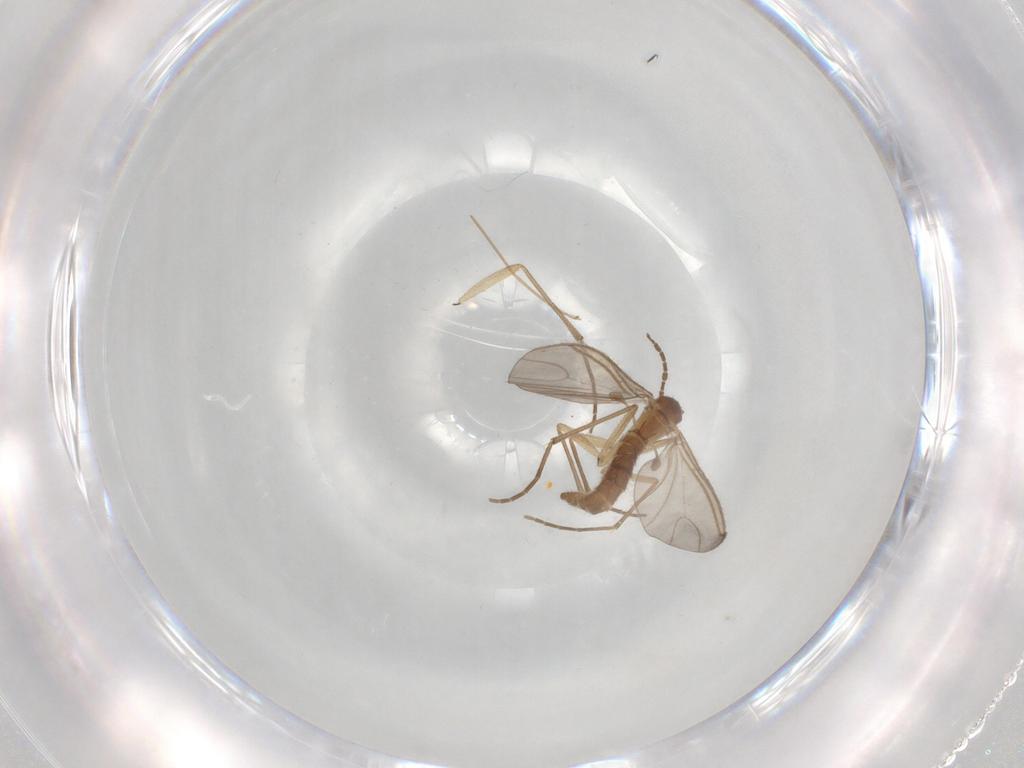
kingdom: Animalia
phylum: Arthropoda
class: Insecta
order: Diptera
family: Sciaridae
